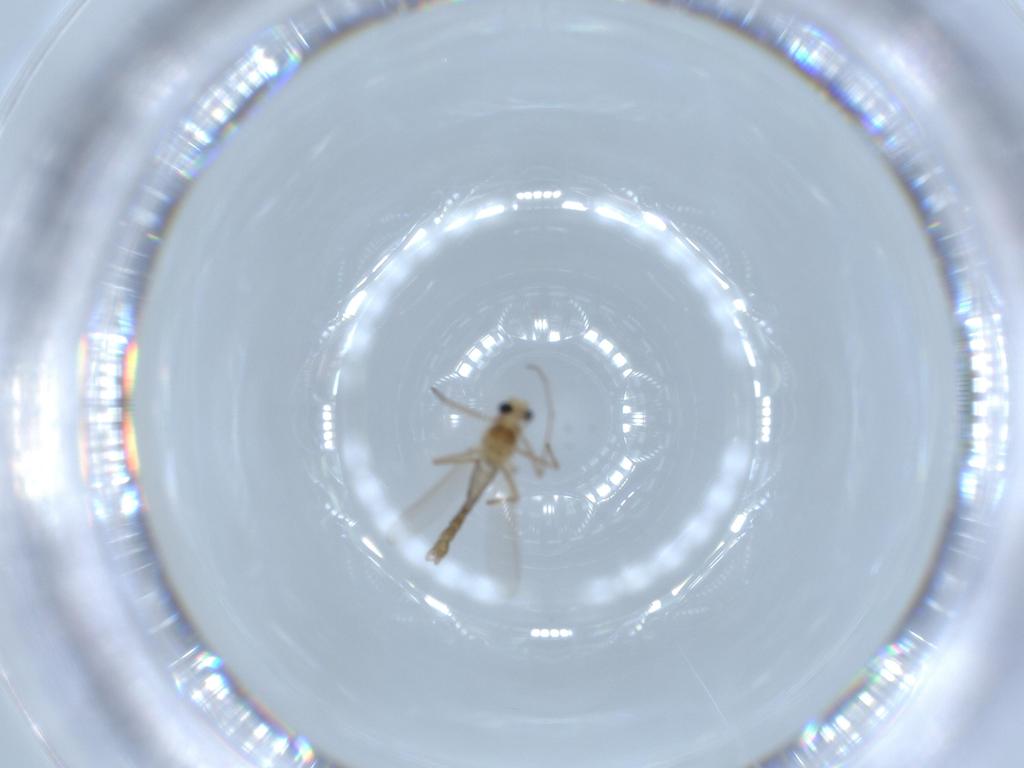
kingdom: Animalia
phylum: Arthropoda
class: Insecta
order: Diptera
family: Chironomidae
